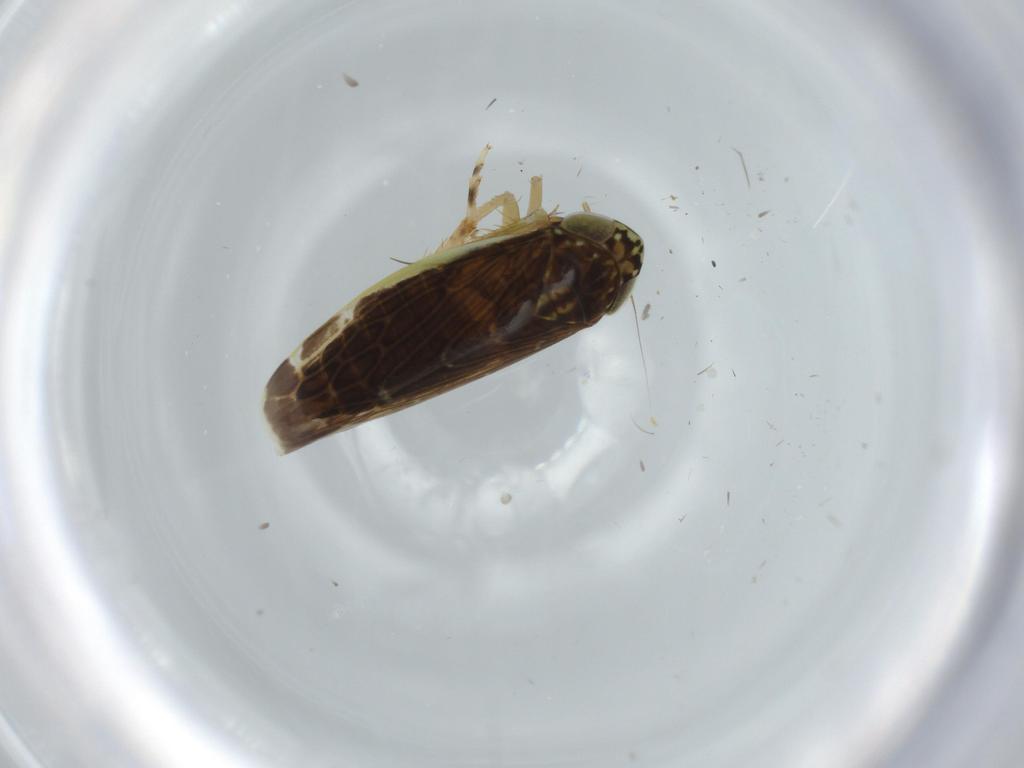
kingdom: Animalia
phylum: Arthropoda
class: Insecta
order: Hemiptera
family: Cicadellidae
